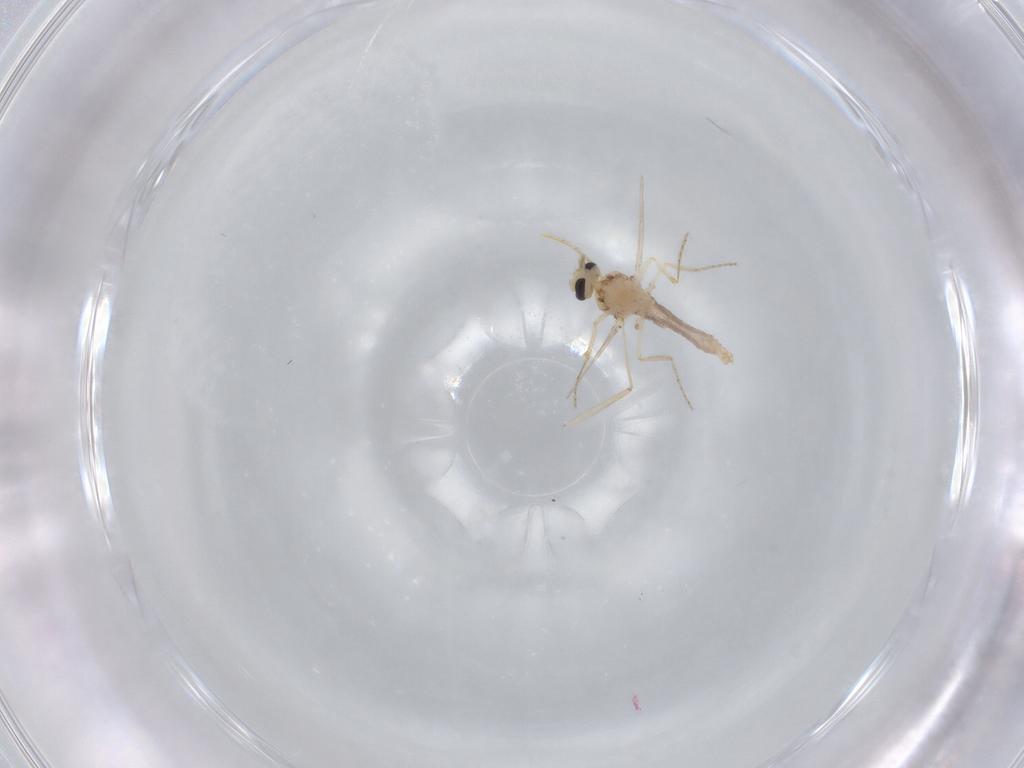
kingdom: Animalia
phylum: Arthropoda
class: Insecta
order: Diptera
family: Ceratopogonidae
